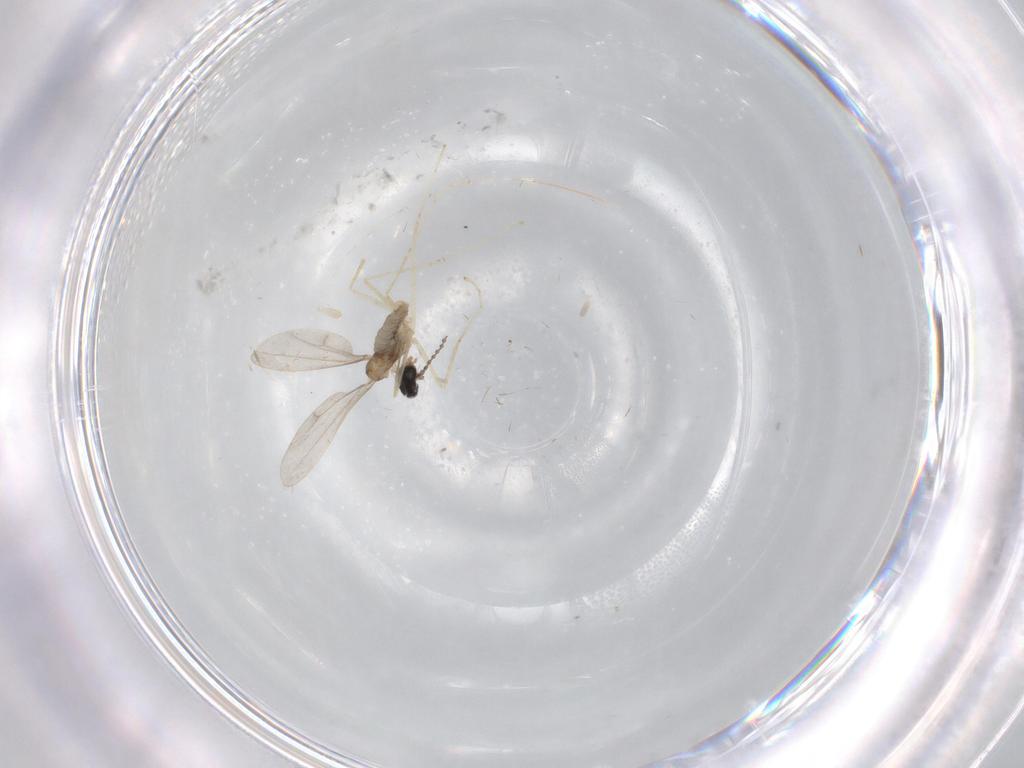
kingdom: Animalia
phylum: Arthropoda
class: Insecta
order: Diptera
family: Cecidomyiidae
